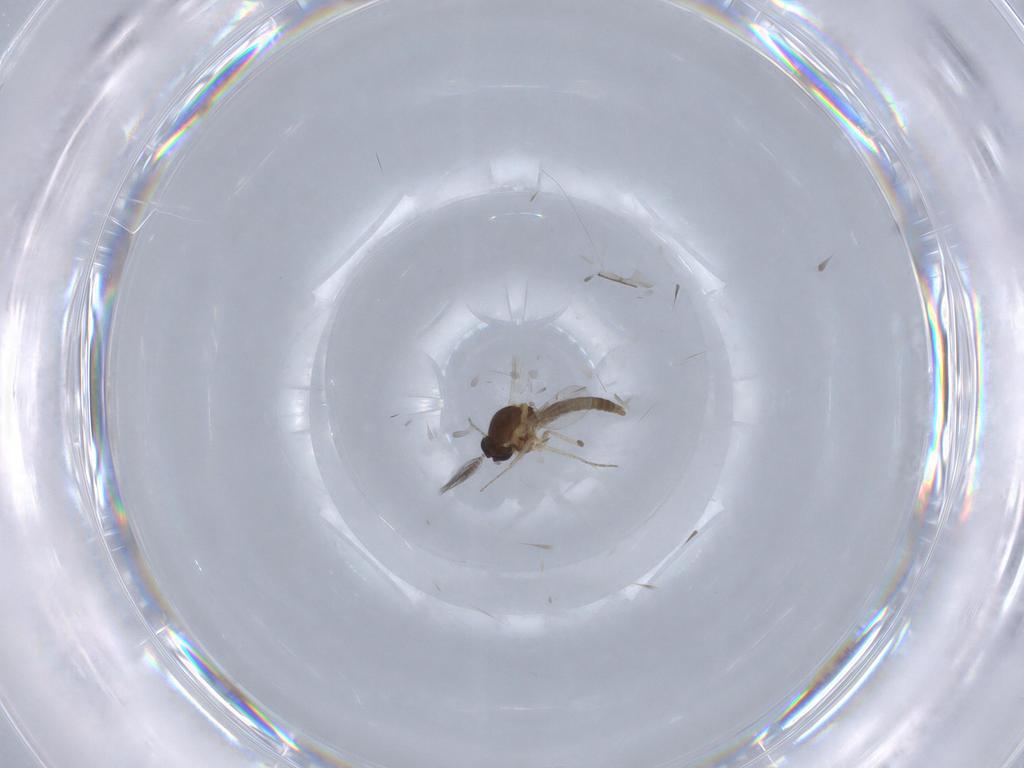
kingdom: Animalia
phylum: Arthropoda
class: Insecta
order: Diptera
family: Ceratopogonidae
